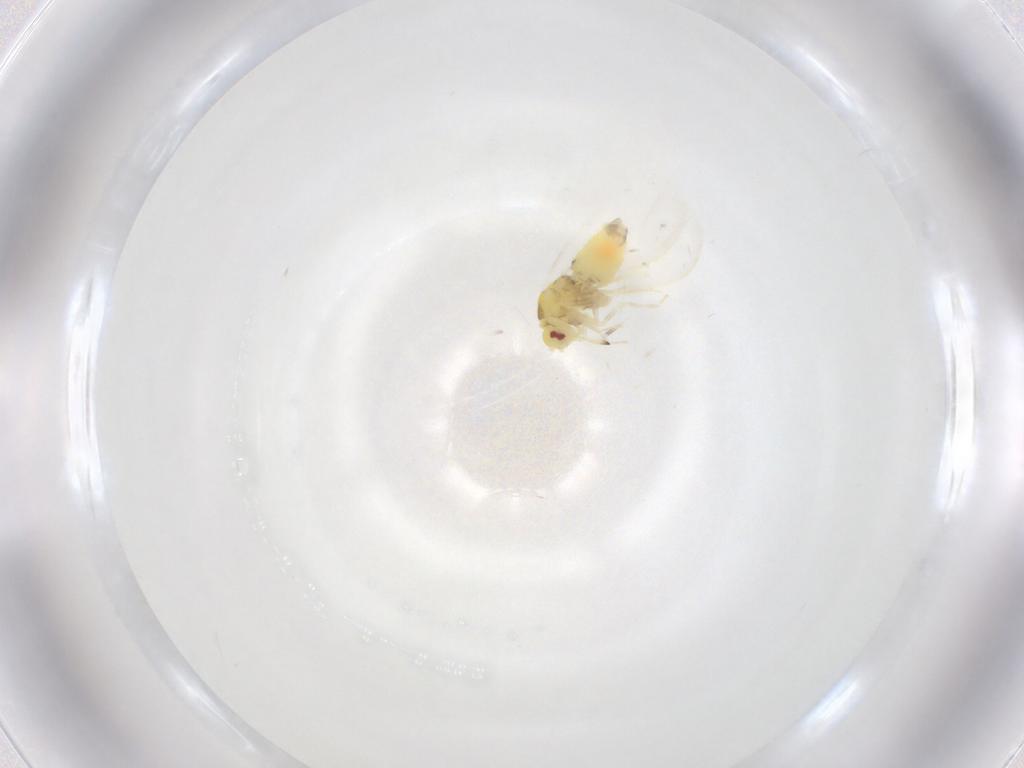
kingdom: Animalia
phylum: Arthropoda
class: Insecta
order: Hemiptera
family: Aleyrodidae
